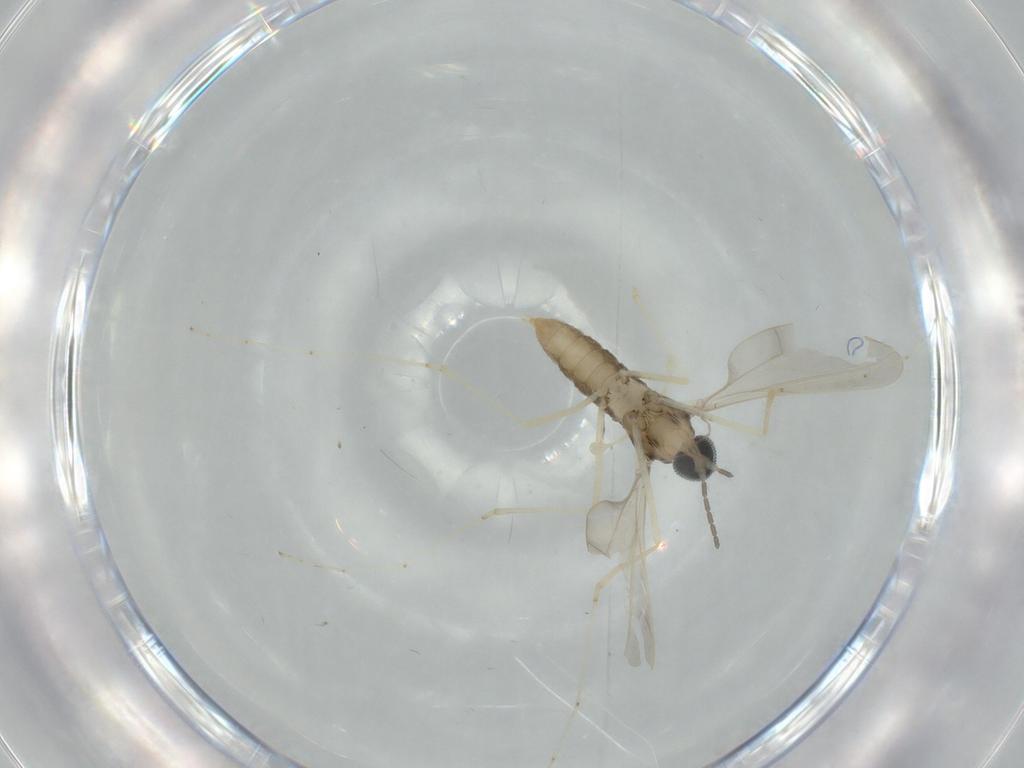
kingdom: Animalia
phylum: Arthropoda
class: Insecta
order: Diptera
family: Cecidomyiidae
